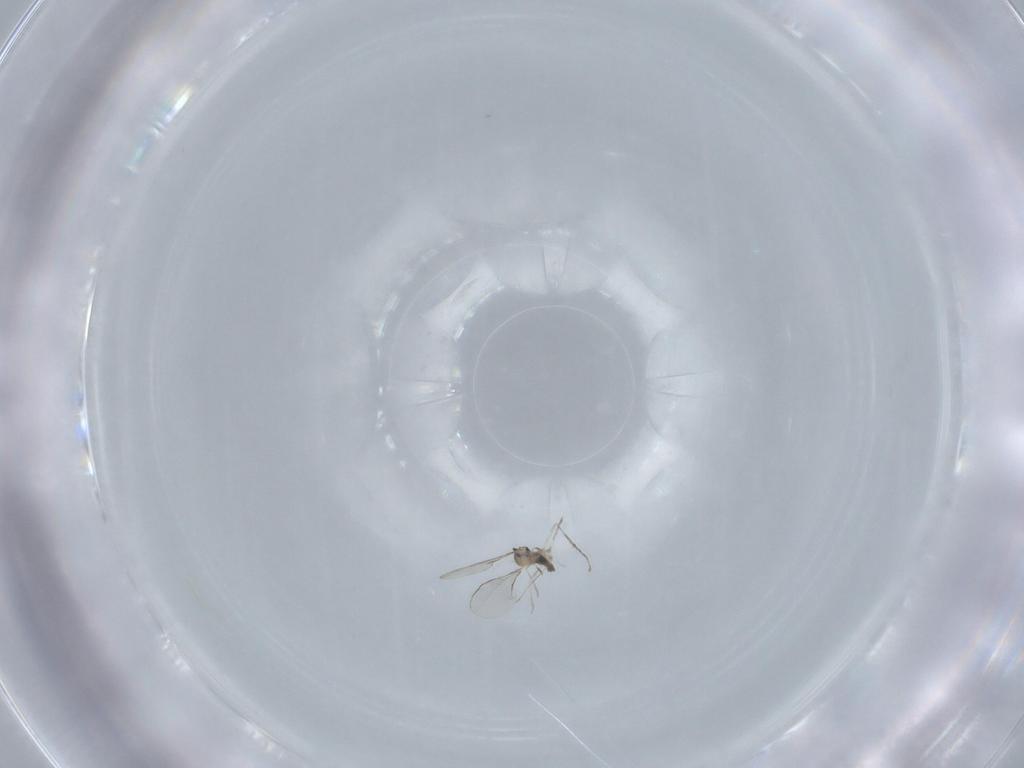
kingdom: Animalia
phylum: Arthropoda
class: Insecta
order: Diptera
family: Cecidomyiidae
